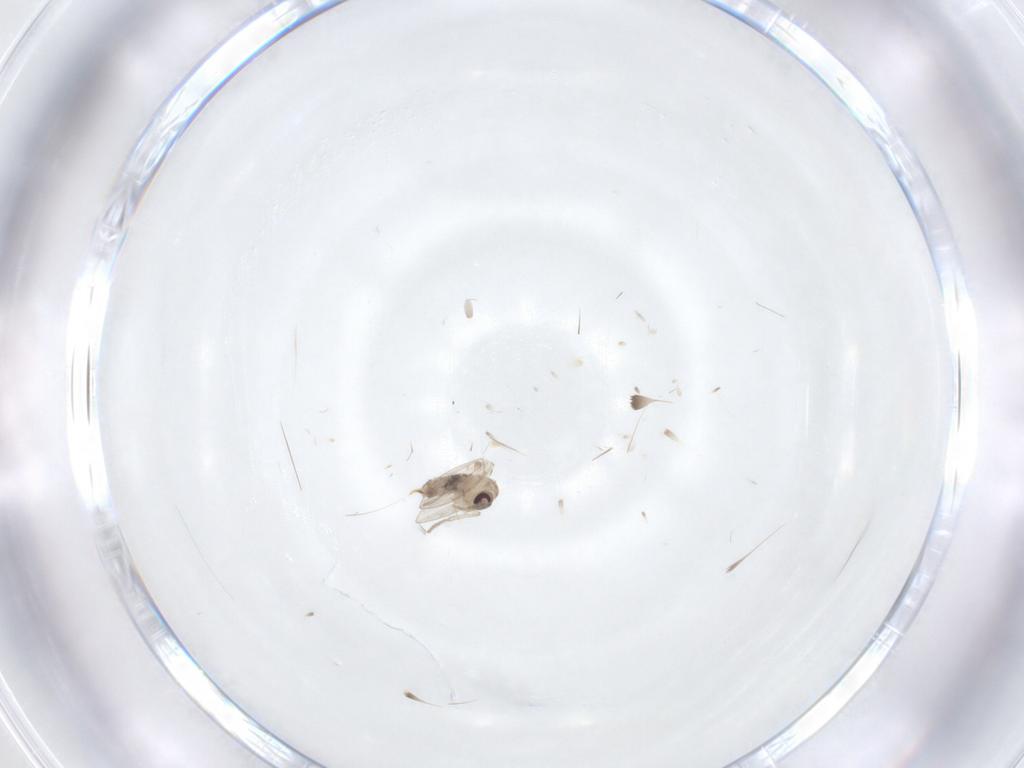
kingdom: Animalia
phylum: Arthropoda
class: Insecta
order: Diptera
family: Psychodidae
